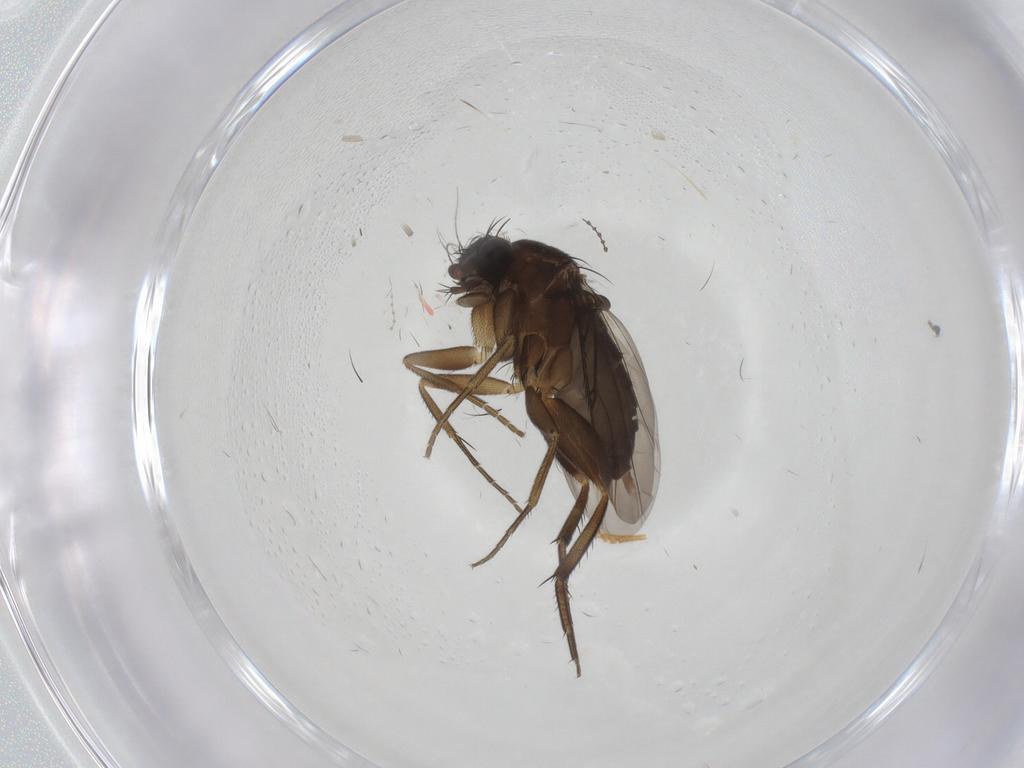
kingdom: Animalia
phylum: Arthropoda
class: Insecta
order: Diptera
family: Phoridae
